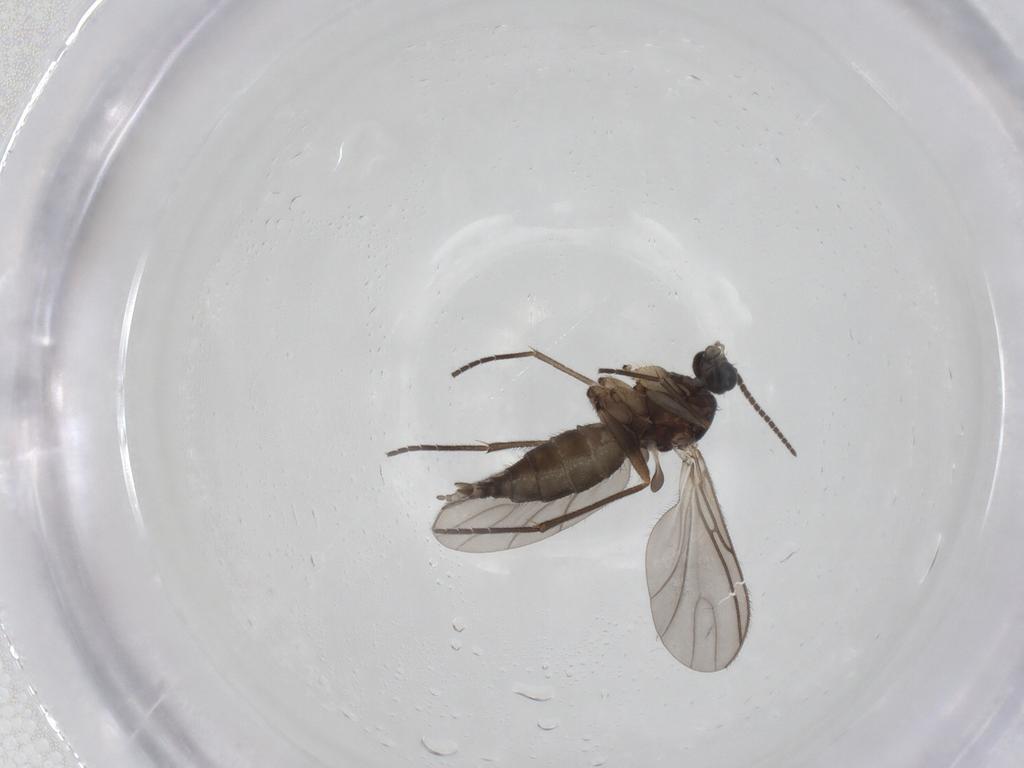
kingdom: Animalia
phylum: Arthropoda
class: Insecta
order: Diptera
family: Sciaridae
